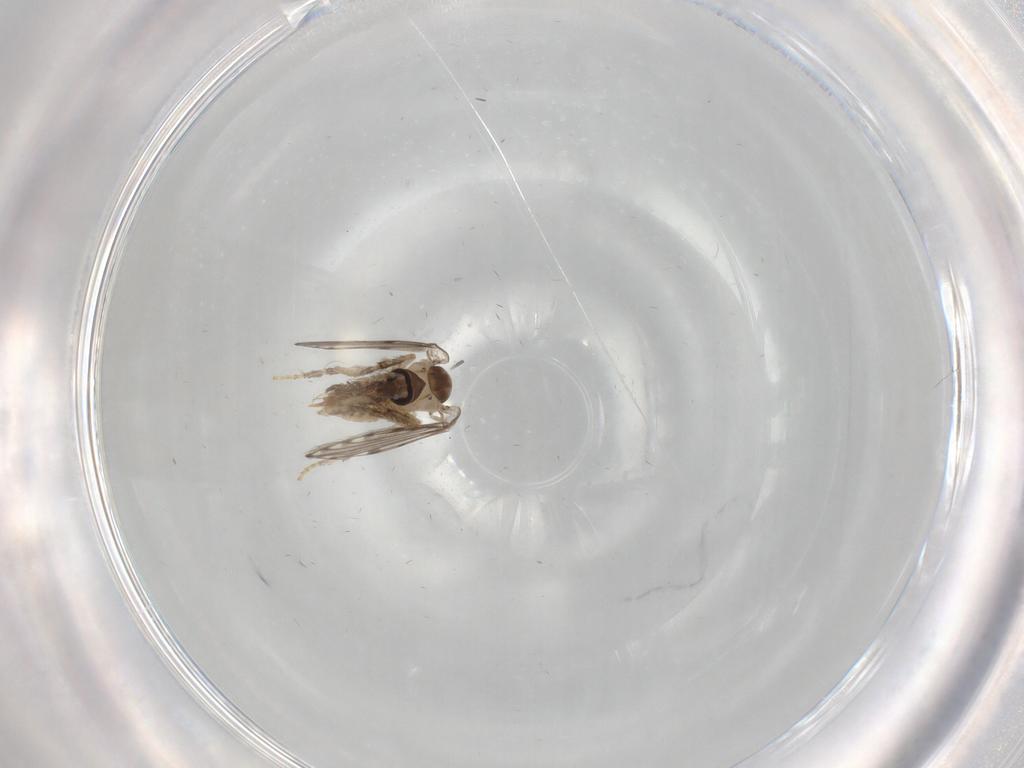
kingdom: Animalia
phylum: Arthropoda
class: Insecta
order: Diptera
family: Psychodidae
